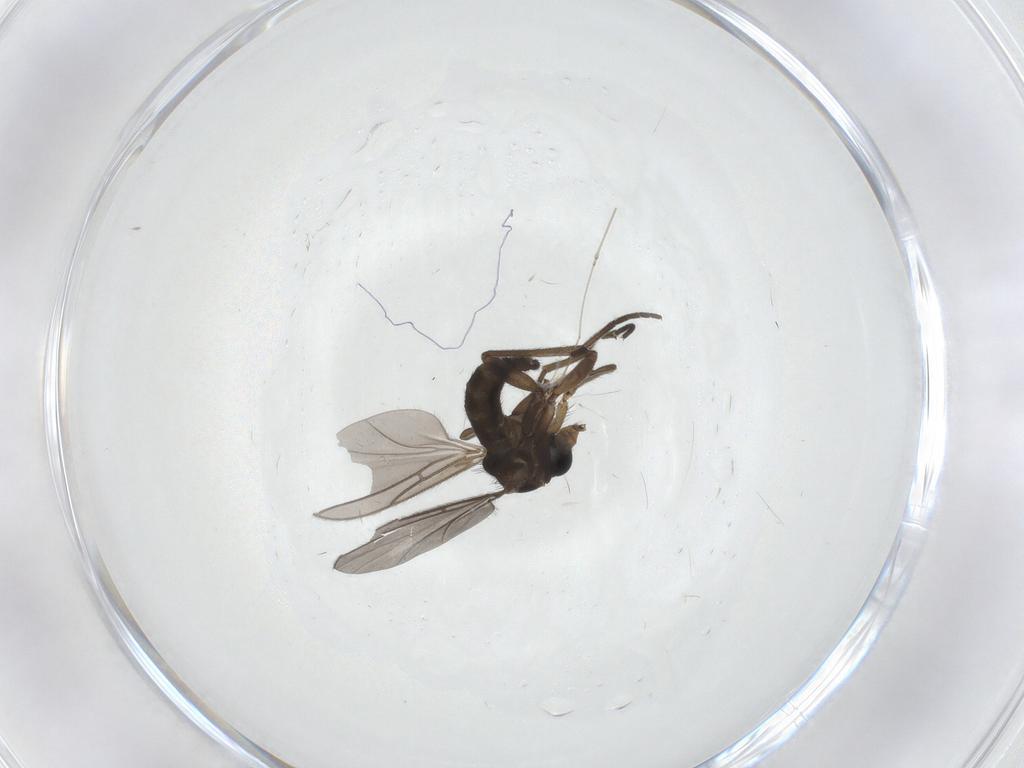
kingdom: Animalia
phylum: Arthropoda
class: Insecta
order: Diptera
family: Sciaridae
